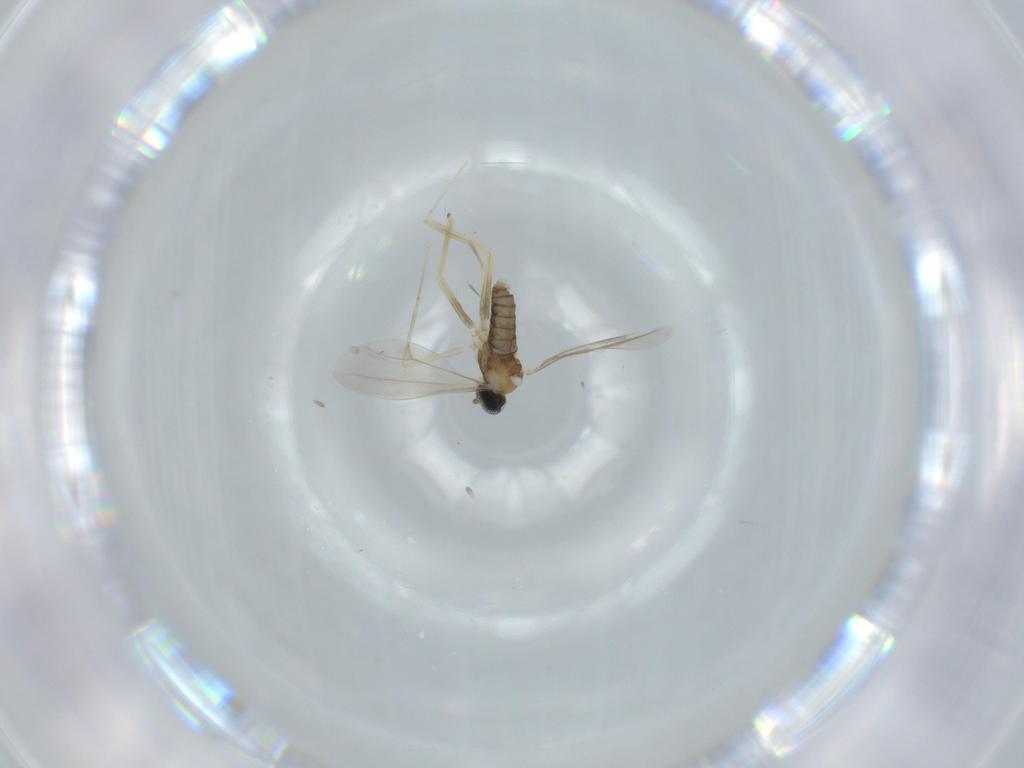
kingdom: Animalia
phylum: Arthropoda
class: Insecta
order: Diptera
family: Cecidomyiidae
